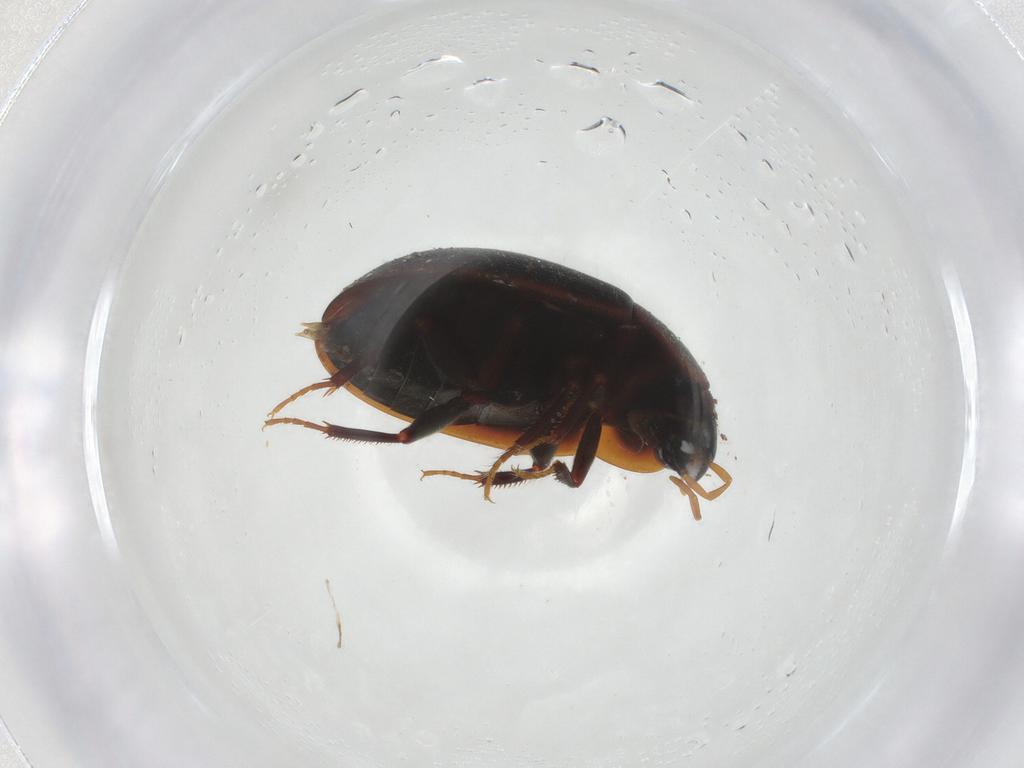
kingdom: Animalia
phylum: Arthropoda
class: Insecta
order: Coleoptera
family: Hydrophilidae
